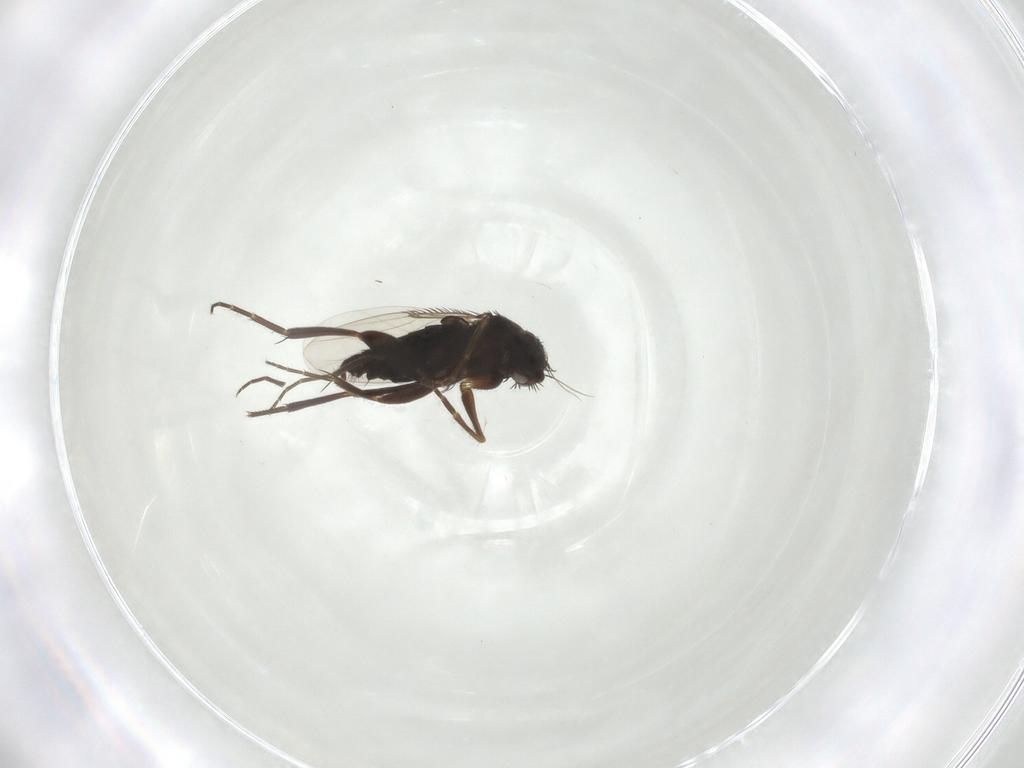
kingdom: Animalia
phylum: Arthropoda
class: Insecta
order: Diptera
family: Phoridae
